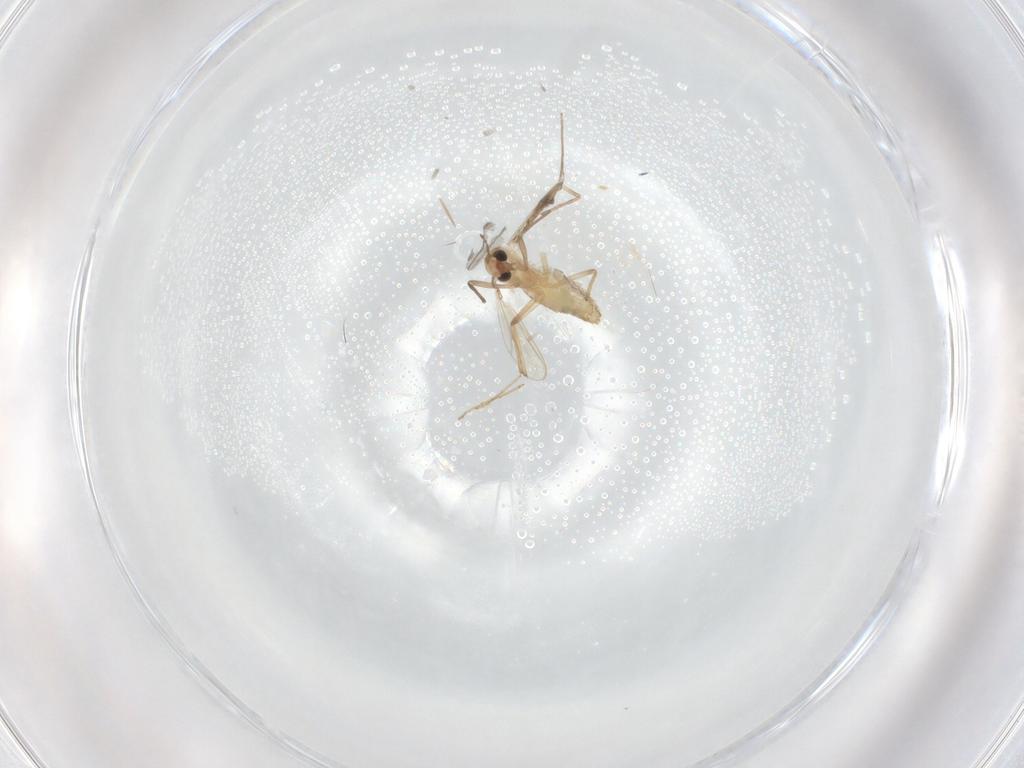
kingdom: Animalia
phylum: Arthropoda
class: Insecta
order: Diptera
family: Chironomidae
